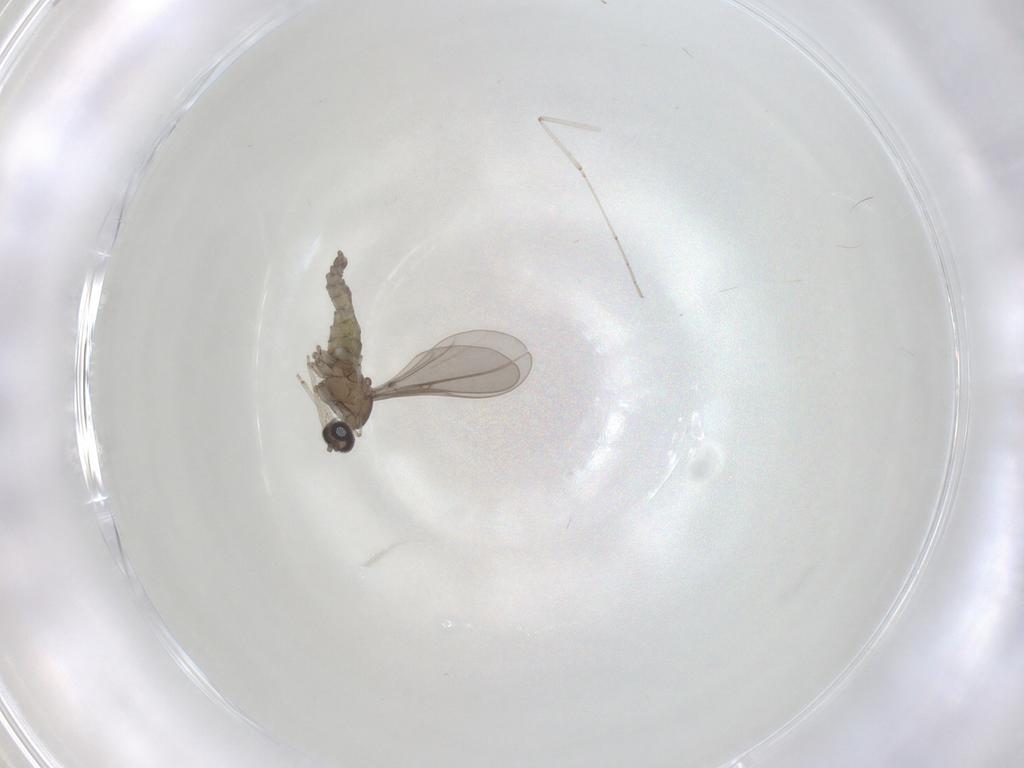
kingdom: Animalia
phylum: Arthropoda
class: Insecta
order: Diptera
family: Cecidomyiidae
